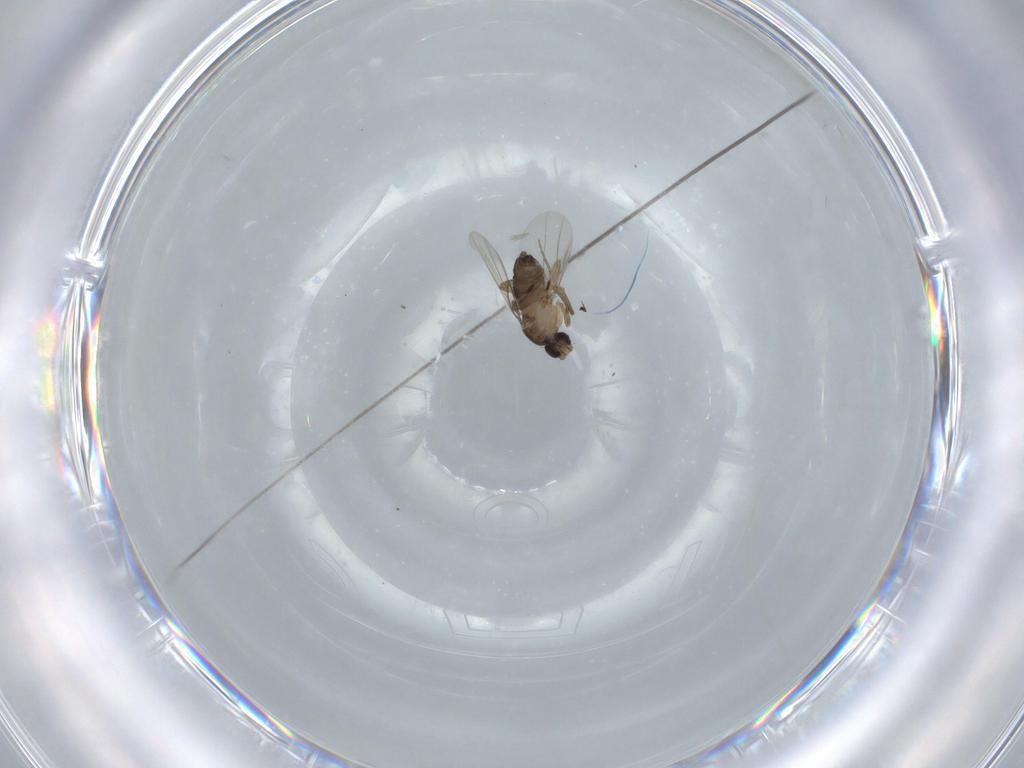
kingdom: Animalia
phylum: Arthropoda
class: Insecta
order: Diptera
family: Phoridae
